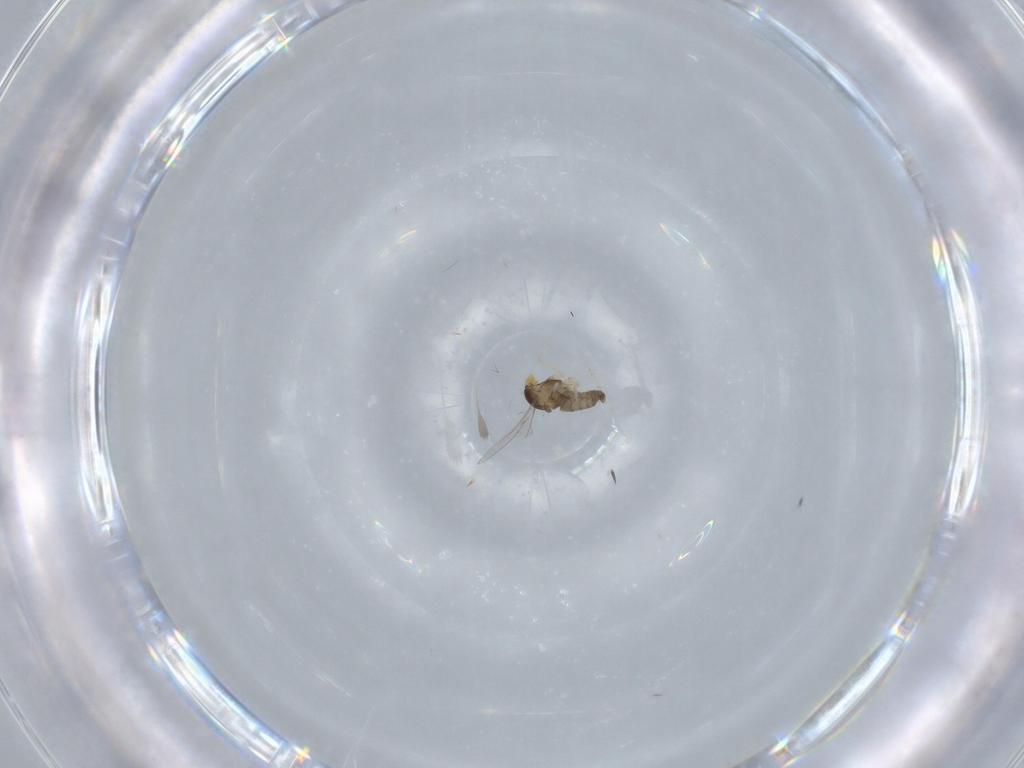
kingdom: Animalia
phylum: Arthropoda
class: Insecta
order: Diptera
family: Cecidomyiidae
